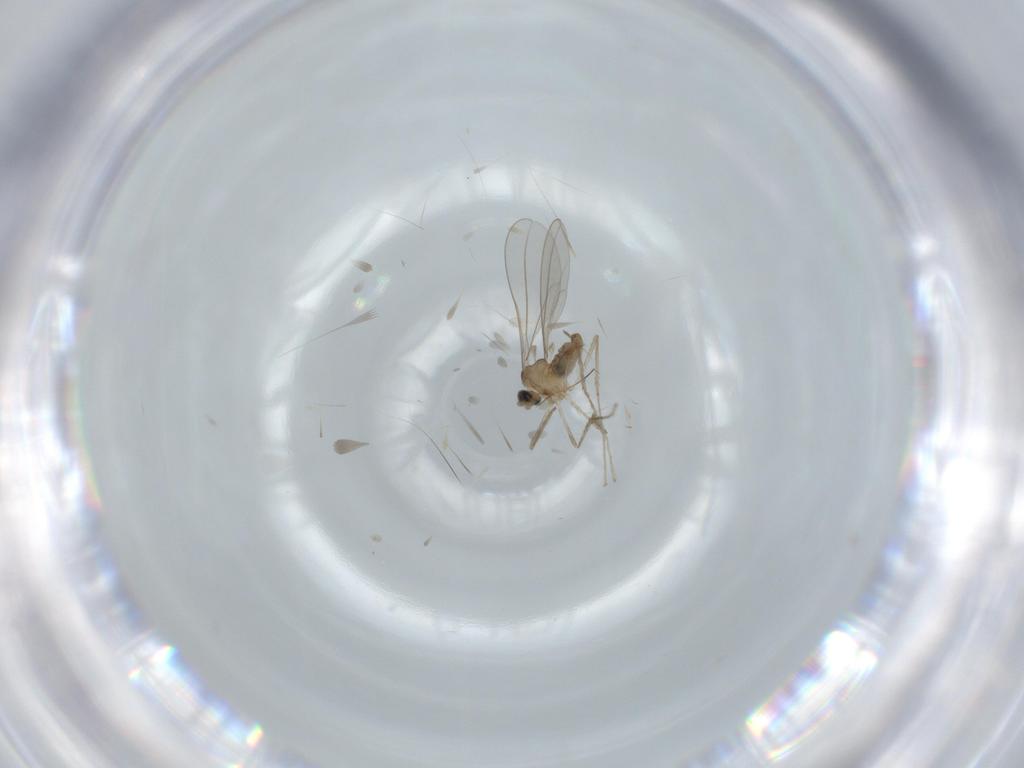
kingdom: Animalia
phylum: Arthropoda
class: Insecta
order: Diptera
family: Cecidomyiidae
